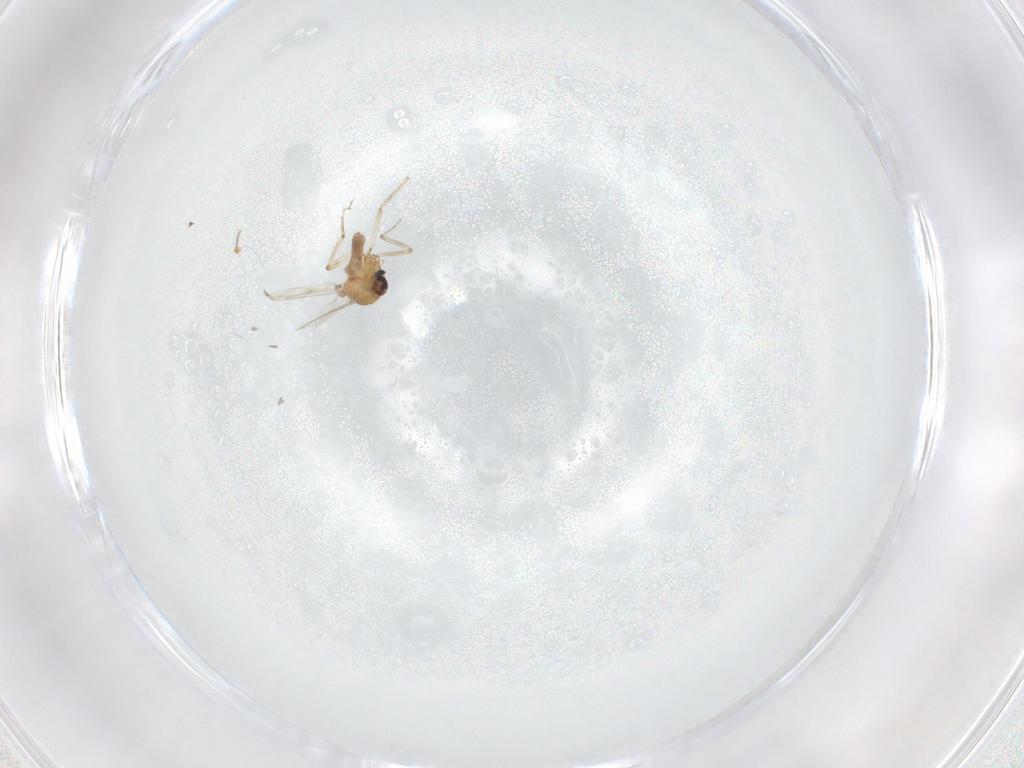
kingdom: Animalia
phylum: Arthropoda
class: Insecta
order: Diptera
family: Ceratopogonidae
